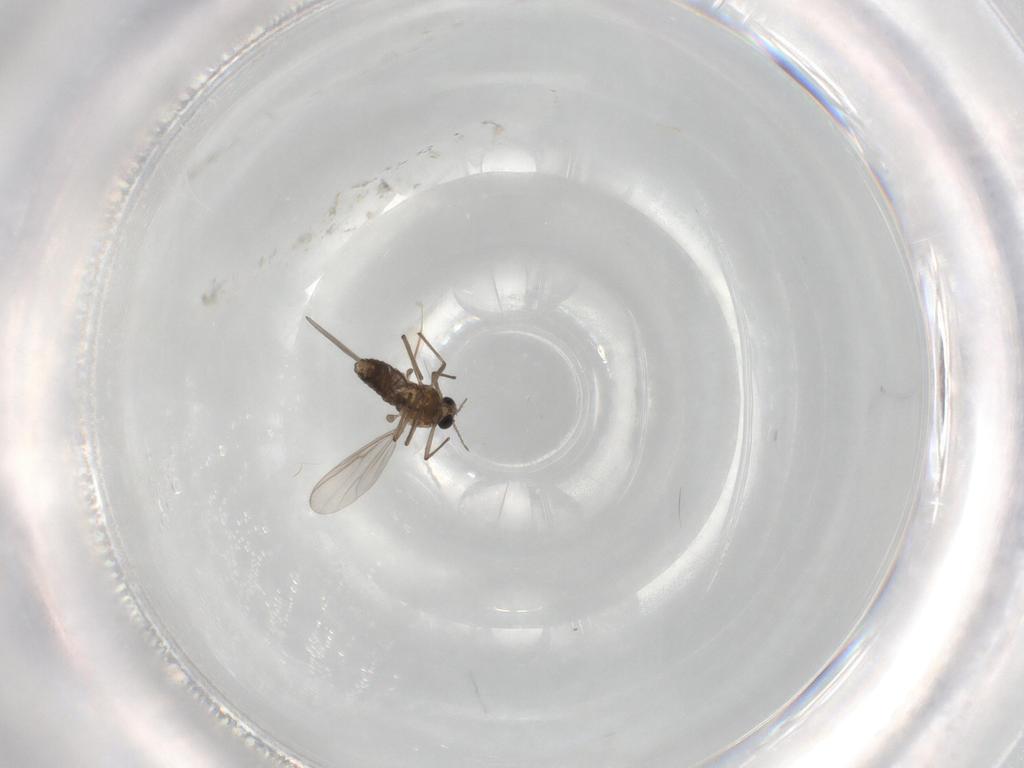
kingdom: Animalia
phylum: Arthropoda
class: Insecta
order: Diptera
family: Chironomidae
